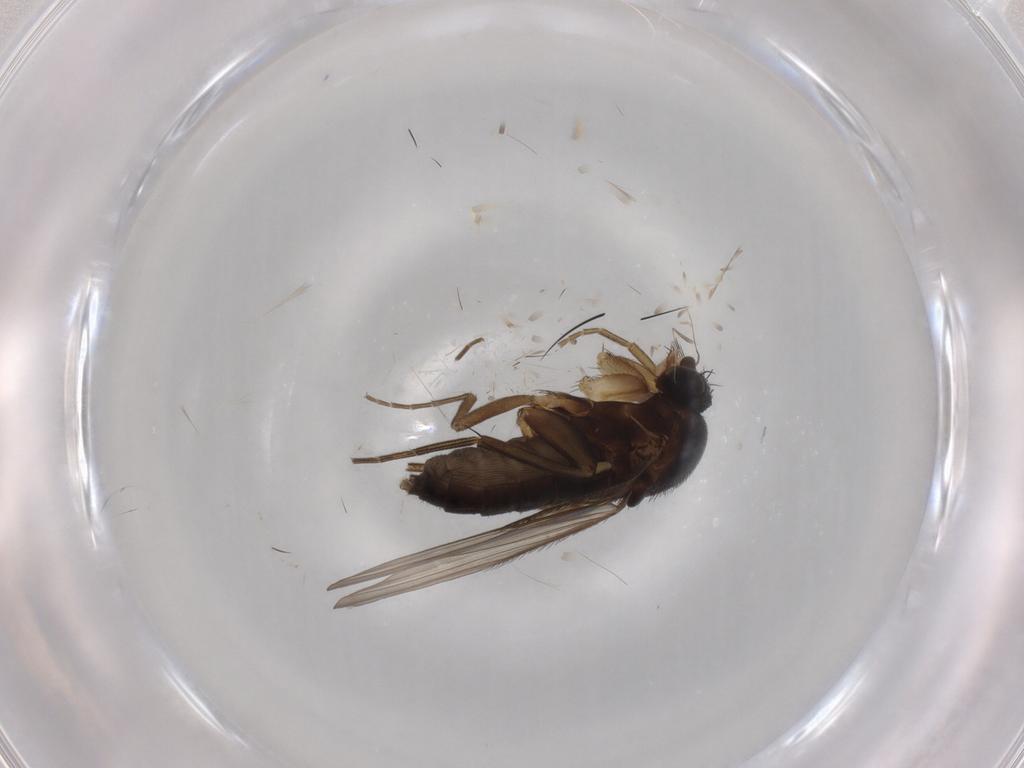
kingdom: Animalia
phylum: Arthropoda
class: Insecta
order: Diptera
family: Phoridae
